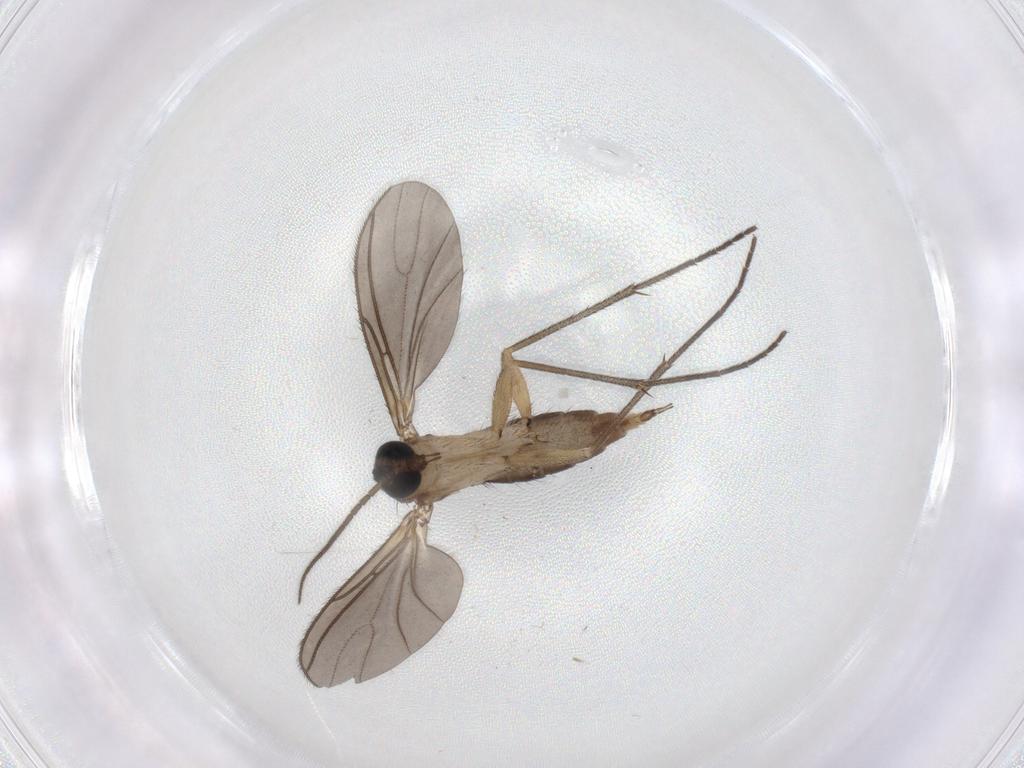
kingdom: Animalia
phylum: Arthropoda
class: Insecta
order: Diptera
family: Sciaridae
